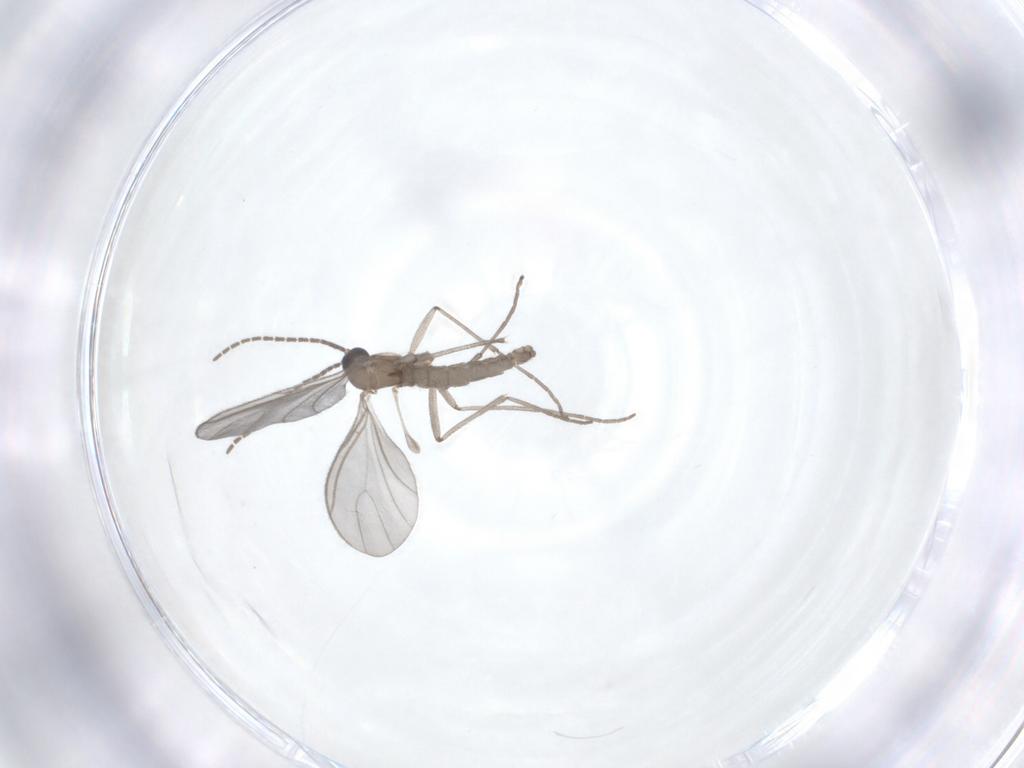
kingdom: Animalia
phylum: Arthropoda
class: Insecta
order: Diptera
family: Sciaridae
